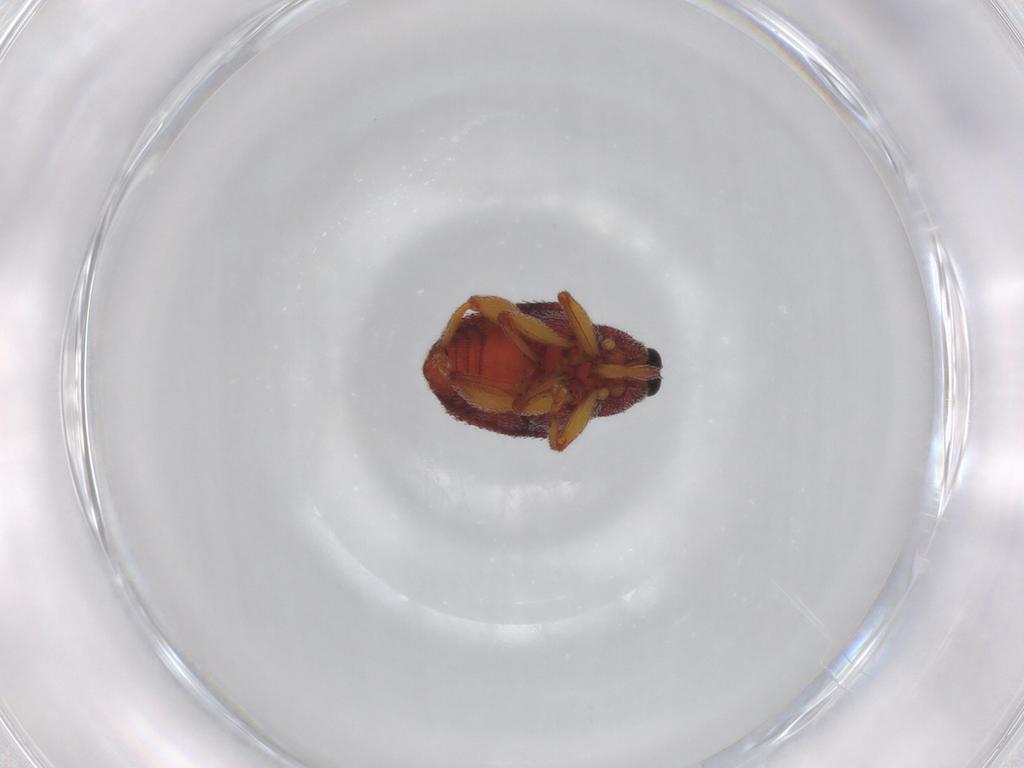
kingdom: Animalia
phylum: Arthropoda
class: Insecta
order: Coleoptera
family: Curculionidae
